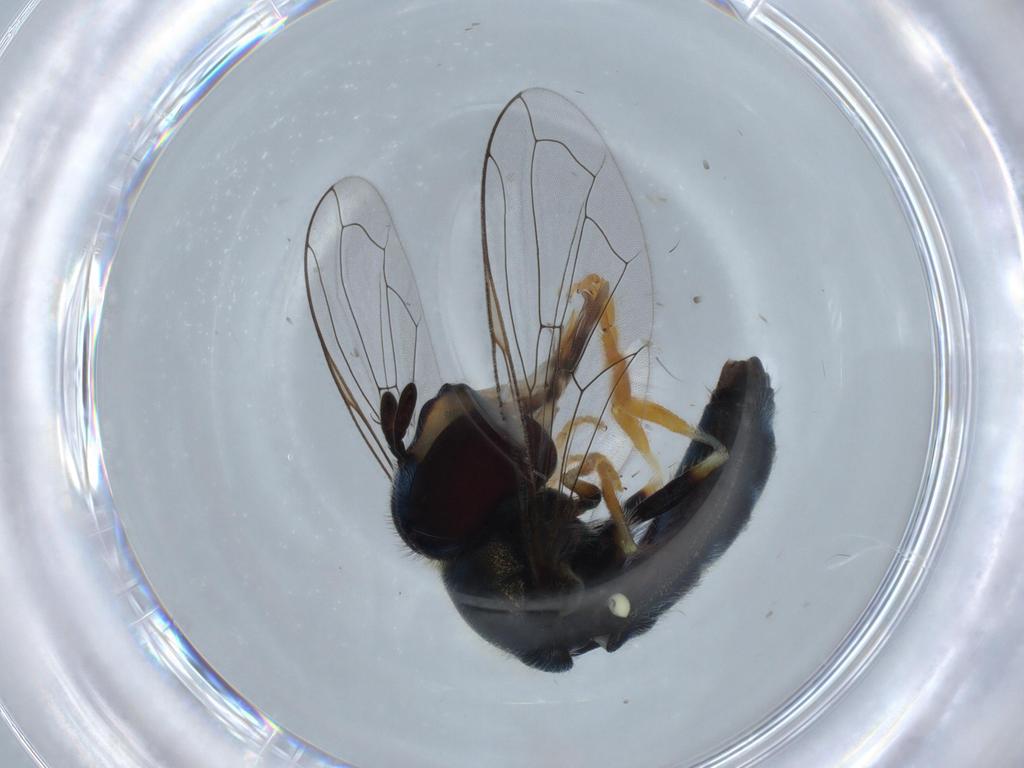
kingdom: Animalia
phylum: Arthropoda
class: Insecta
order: Diptera
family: Syrphidae
